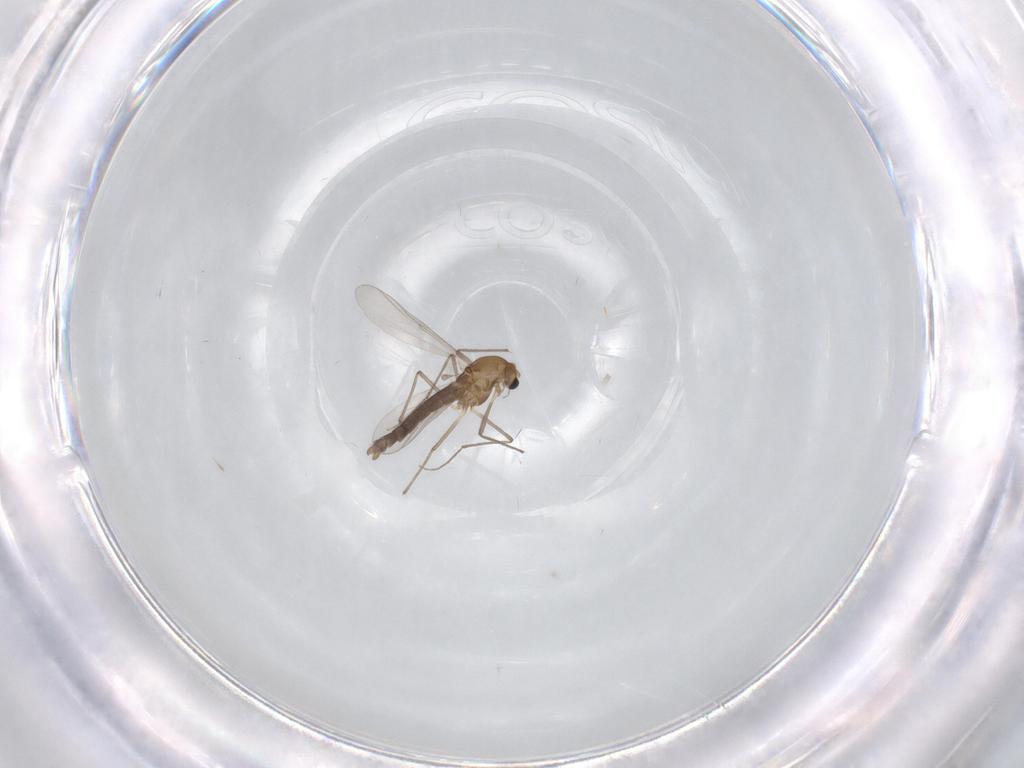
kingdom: Animalia
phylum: Arthropoda
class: Insecta
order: Diptera
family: Chironomidae
